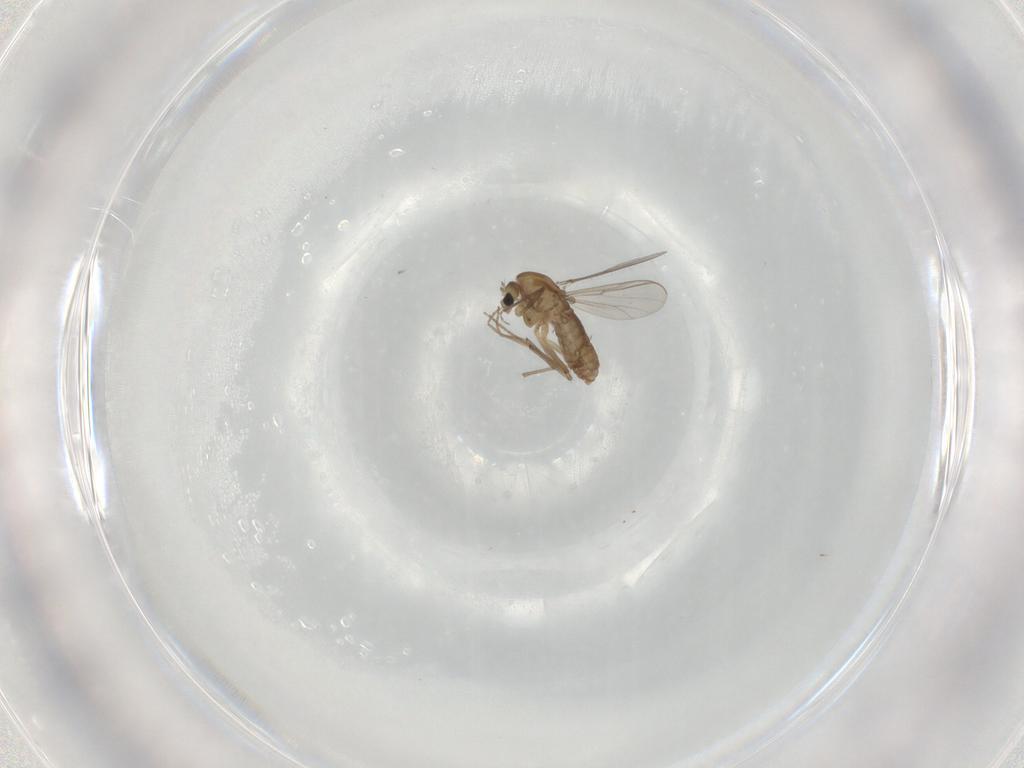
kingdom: Animalia
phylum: Arthropoda
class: Insecta
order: Diptera
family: Chironomidae
